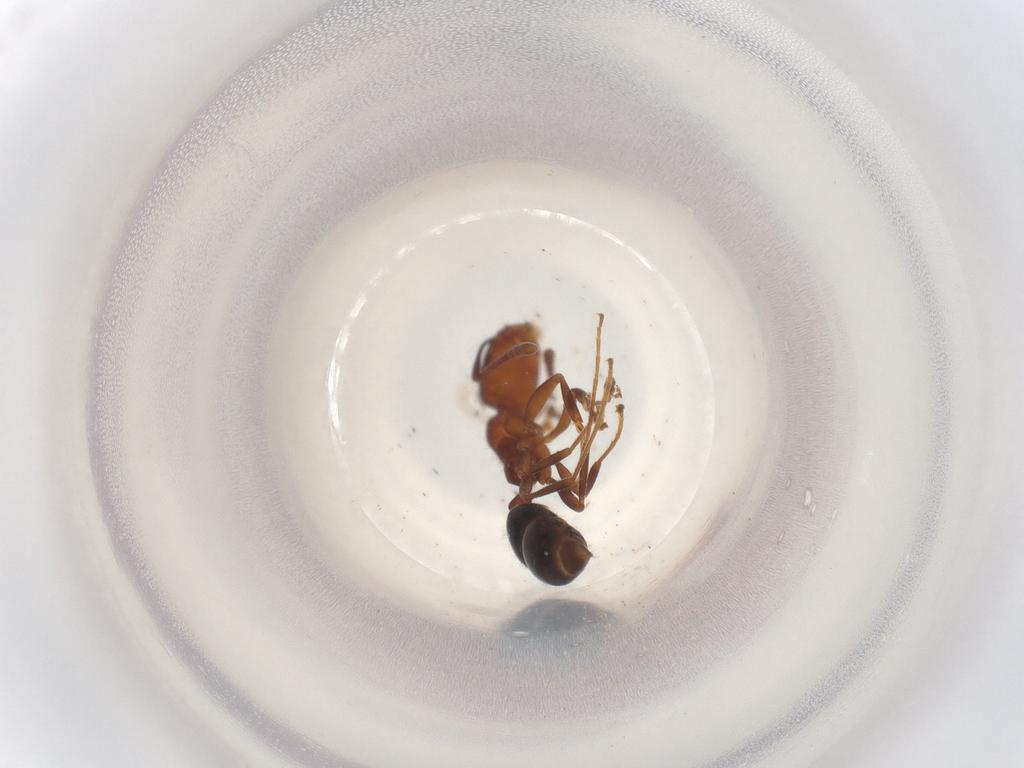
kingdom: Animalia
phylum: Arthropoda
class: Insecta
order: Hymenoptera
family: Formicidae
